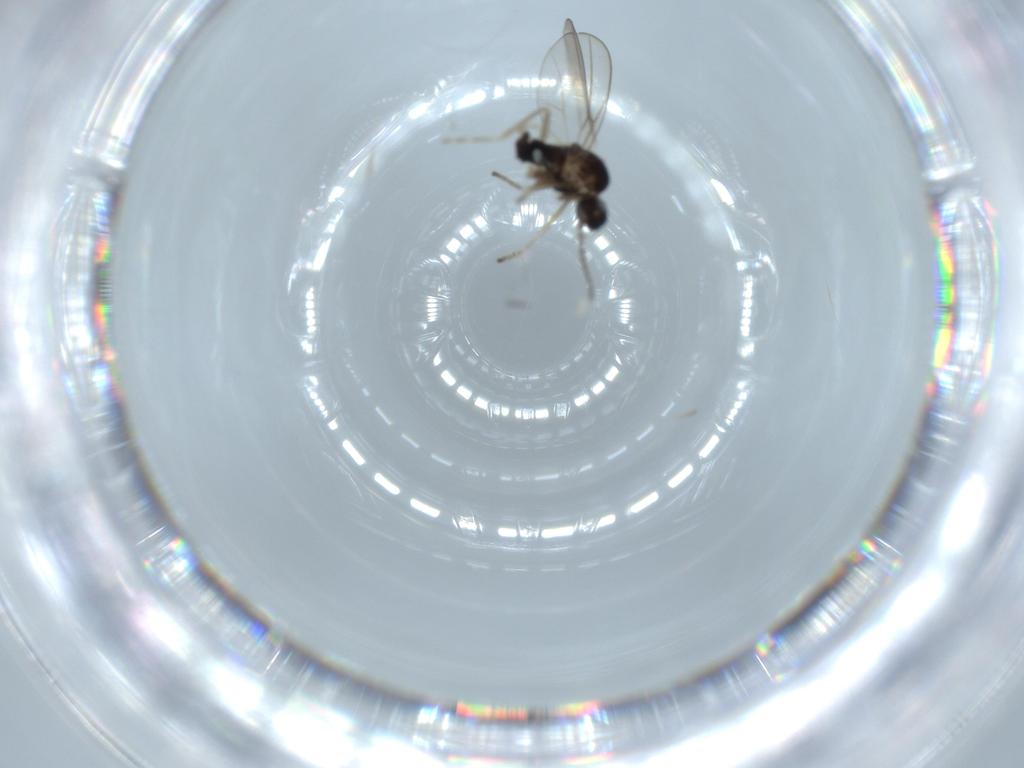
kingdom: Animalia
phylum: Arthropoda
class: Insecta
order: Diptera
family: Cecidomyiidae
